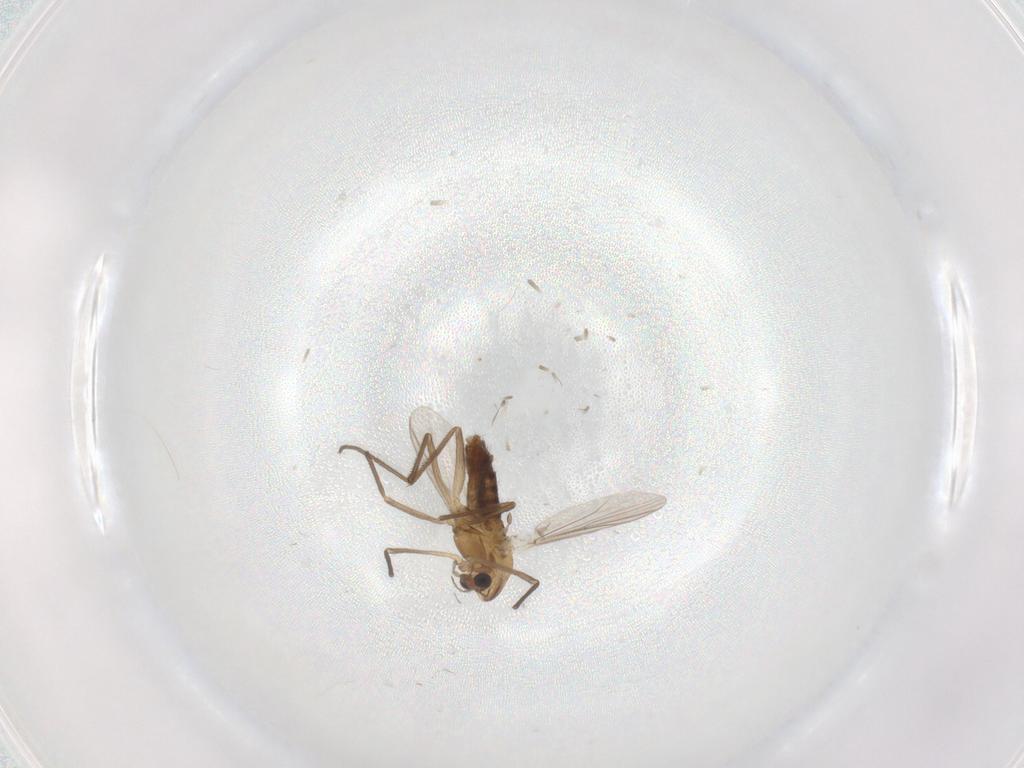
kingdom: Animalia
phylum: Arthropoda
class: Insecta
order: Diptera
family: Chironomidae
